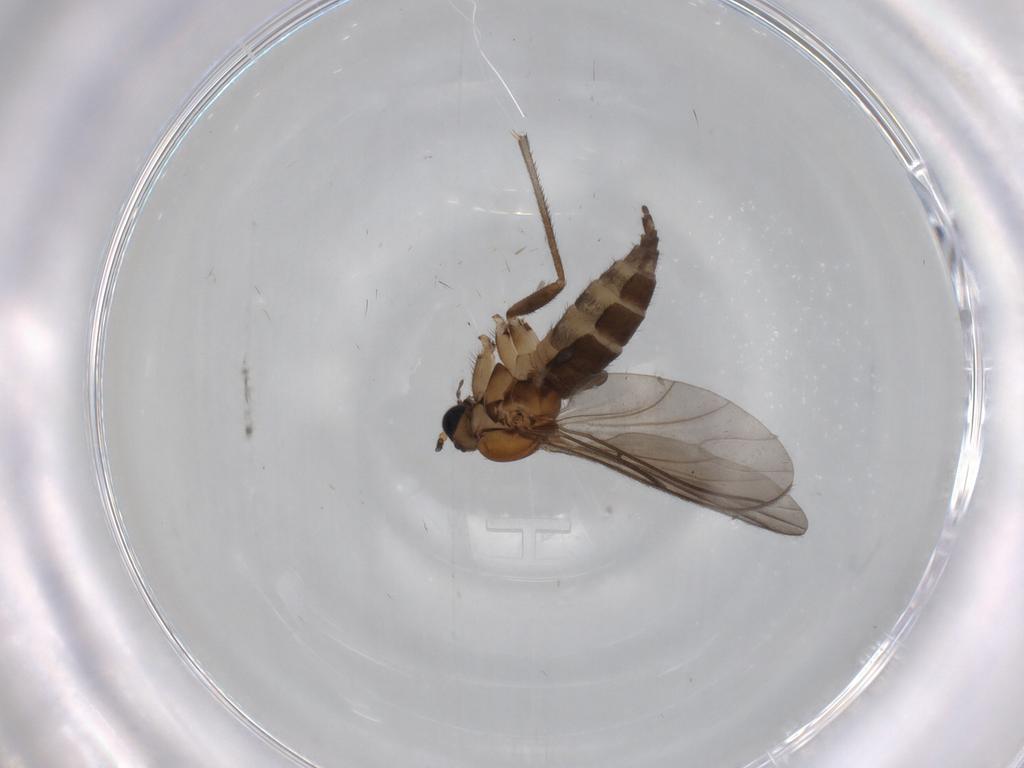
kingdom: Animalia
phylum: Arthropoda
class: Insecta
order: Diptera
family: Sciaridae
